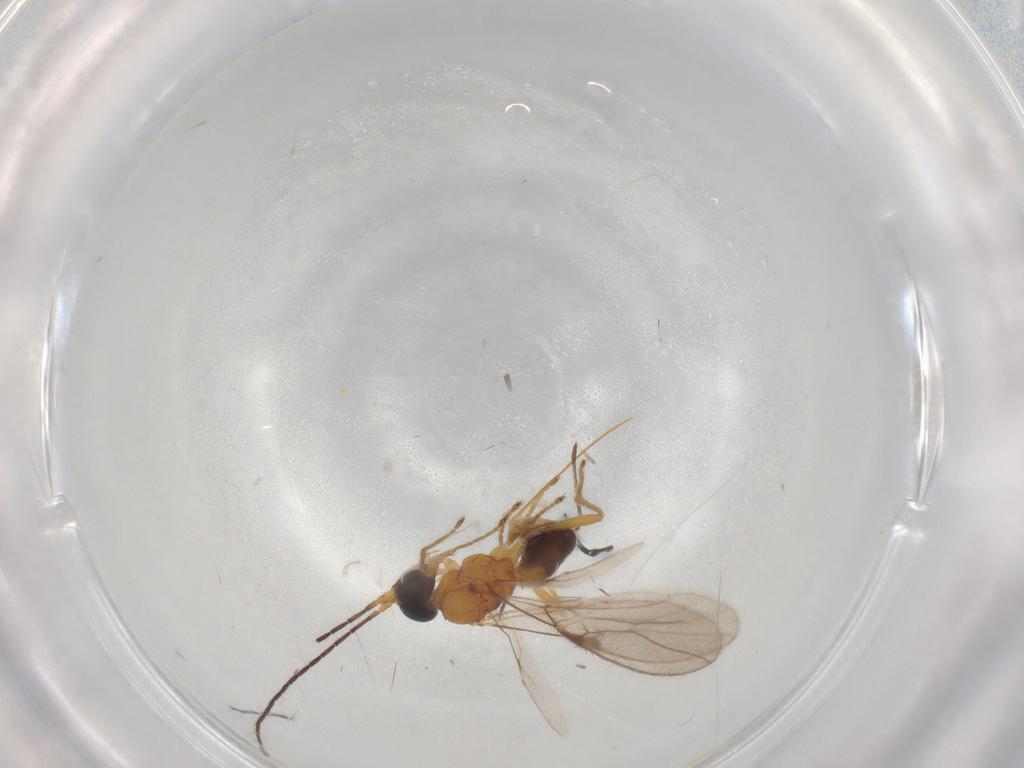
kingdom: Animalia
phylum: Arthropoda
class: Insecta
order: Hymenoptera
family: Braconidae
